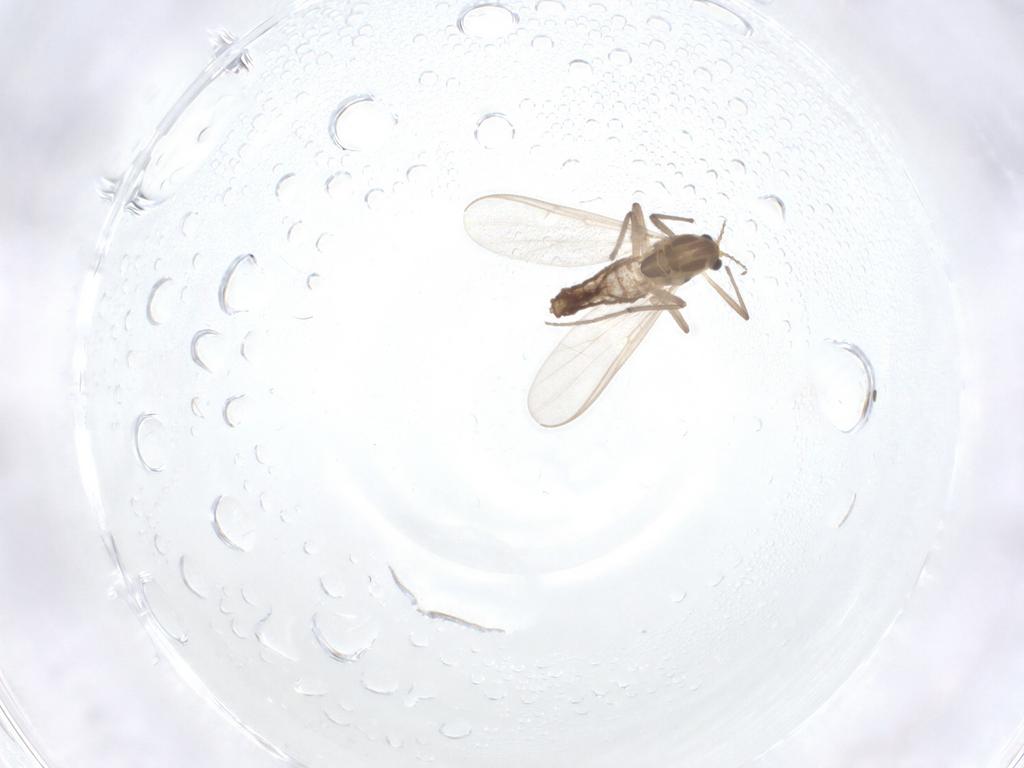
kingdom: Animalia
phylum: Arthropoda
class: Insecta
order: Diptera
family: Chironomidae
